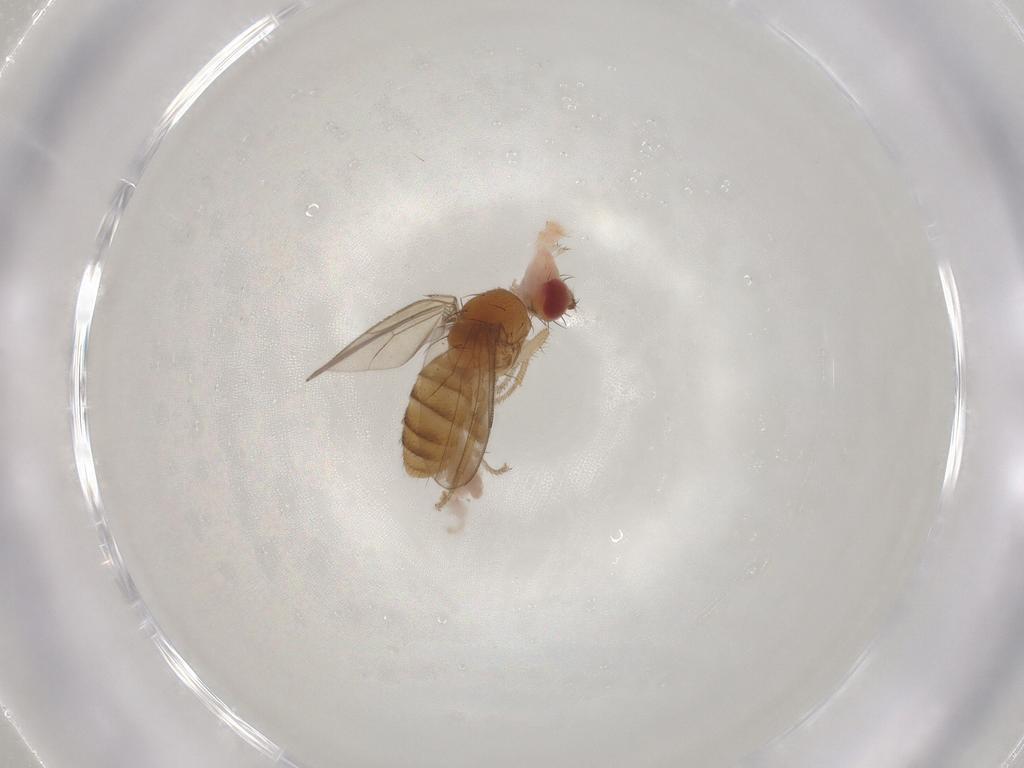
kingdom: Animalia
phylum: Arthropoda
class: Insecta
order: Diptera
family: Drosophilidae
